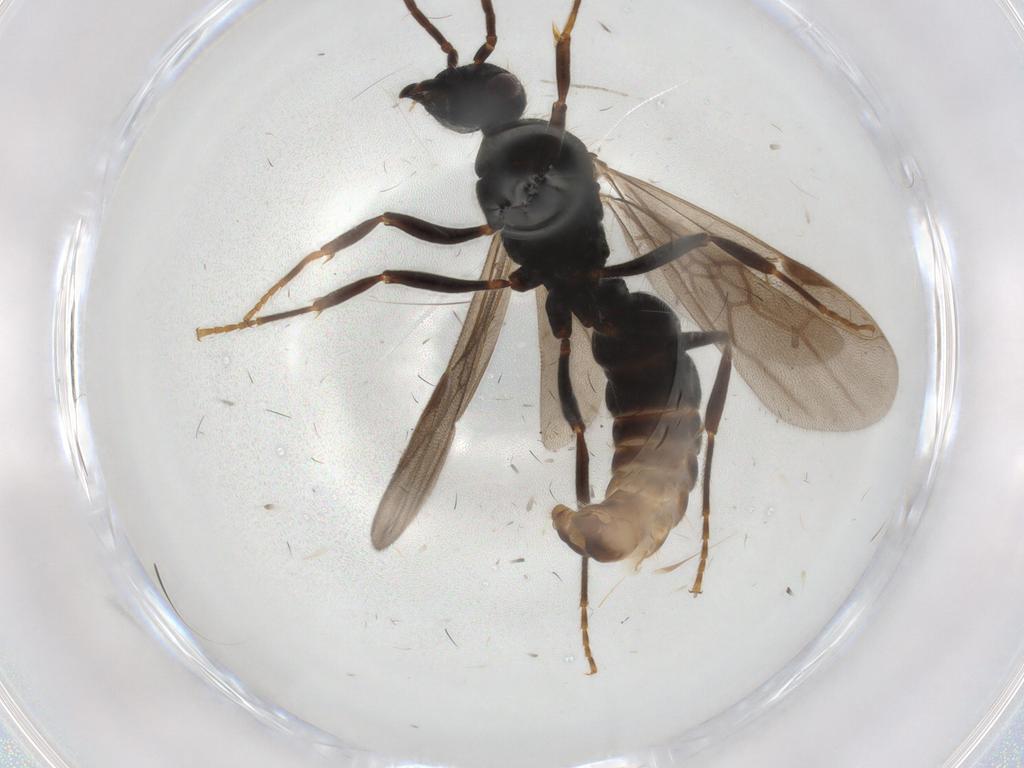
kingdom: Animalia
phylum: Arthropoda
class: Insecta
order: Hymenoptera
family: Formicidae
